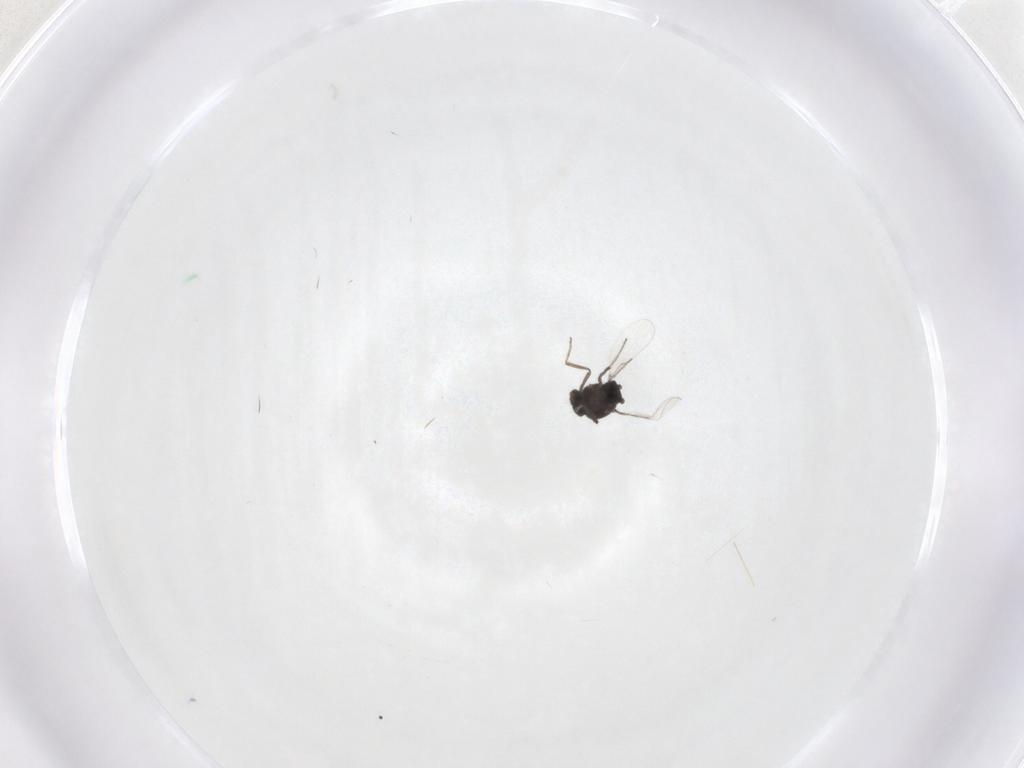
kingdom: Animalia
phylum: Arthropoda
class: Insecta
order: Diptera
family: Ceratopogonidae
